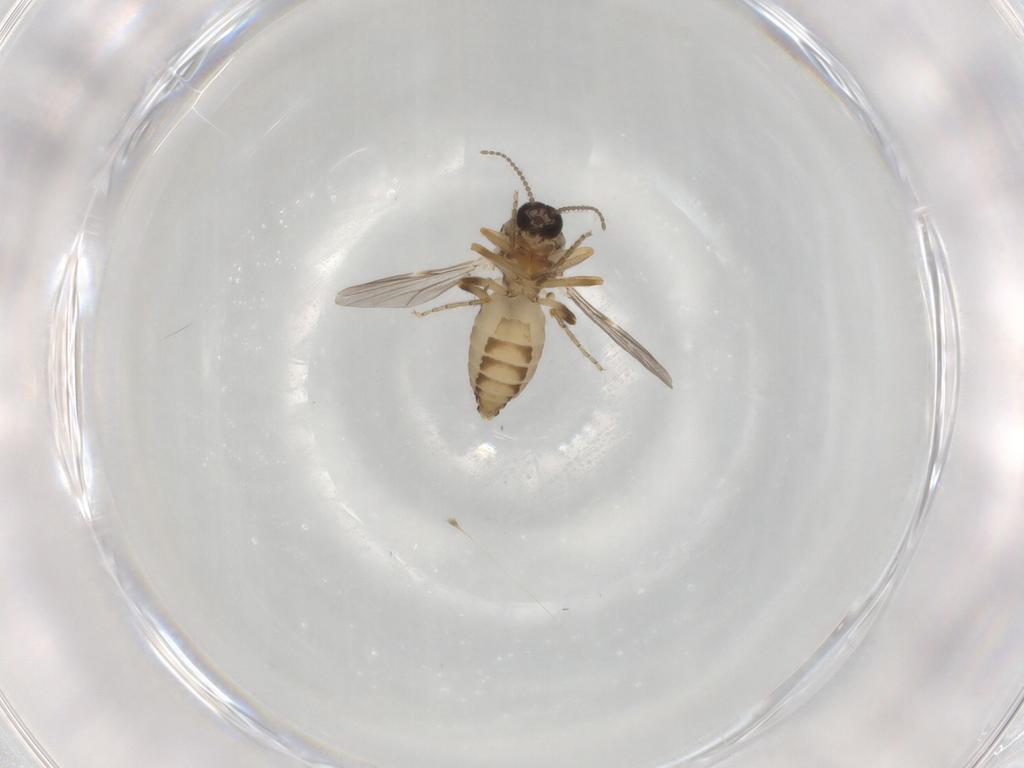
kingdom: Animalia
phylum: Arthropoda
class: Insecta
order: Diptera
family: Ceratopogonidae
